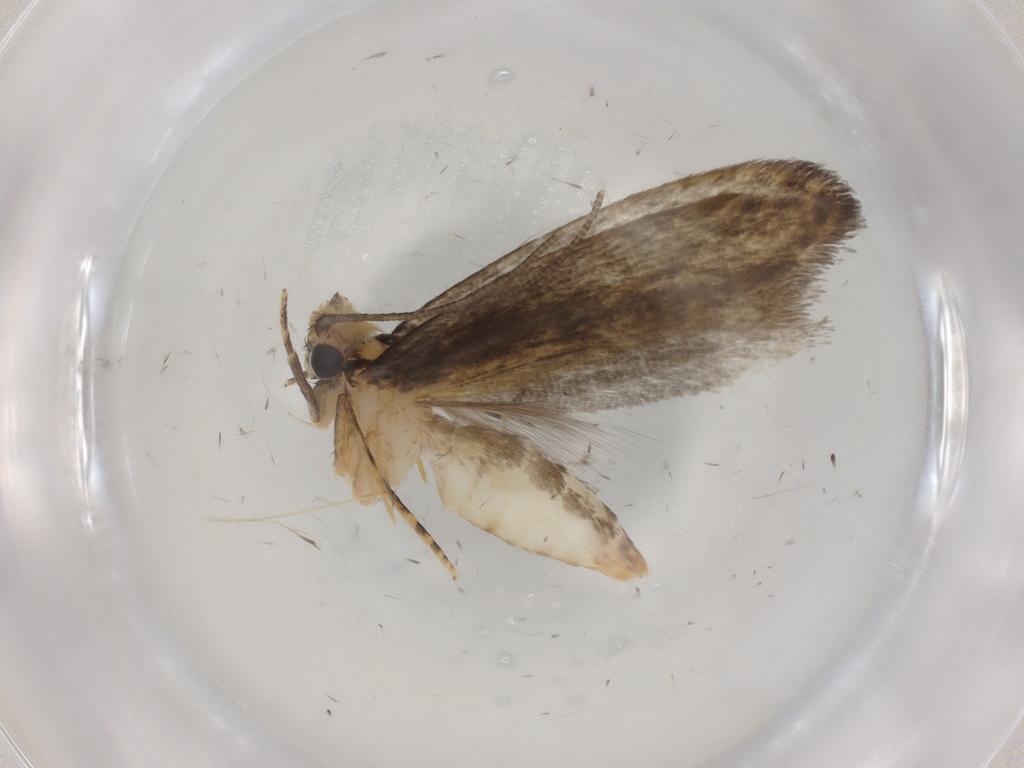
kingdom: Animalia
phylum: Arthropoda
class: Insecta
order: Lepidoptera
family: Tineidae
